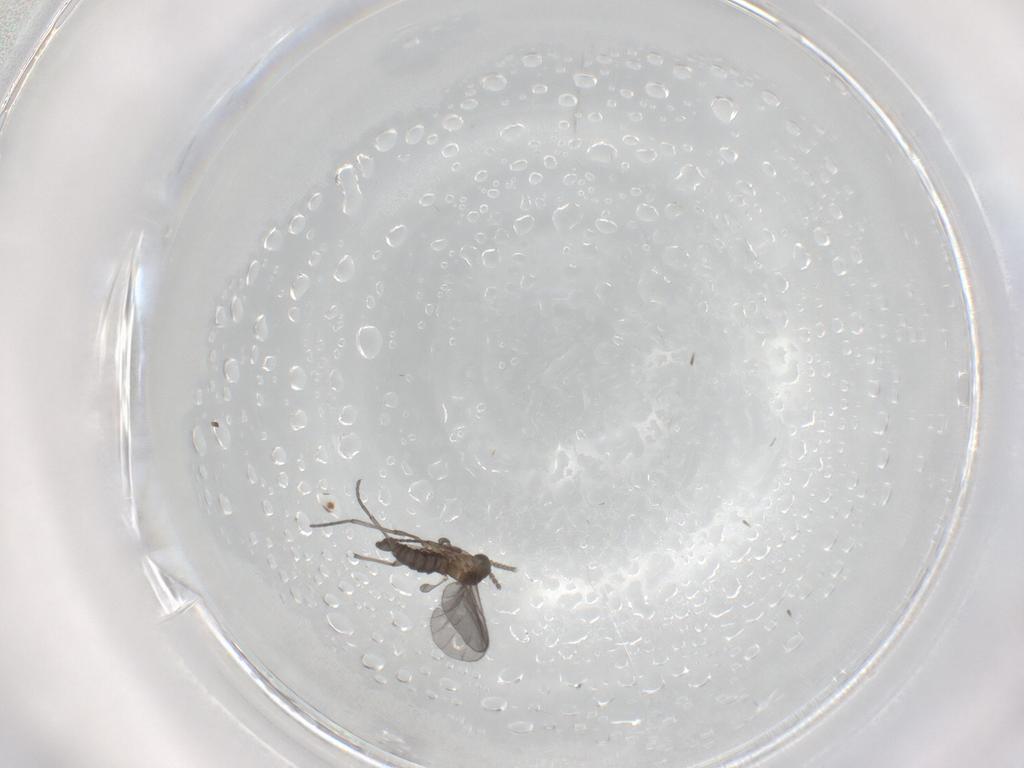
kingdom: Animalia
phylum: Arthropoda
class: Insecta
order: Diptera
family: Sciaridae
